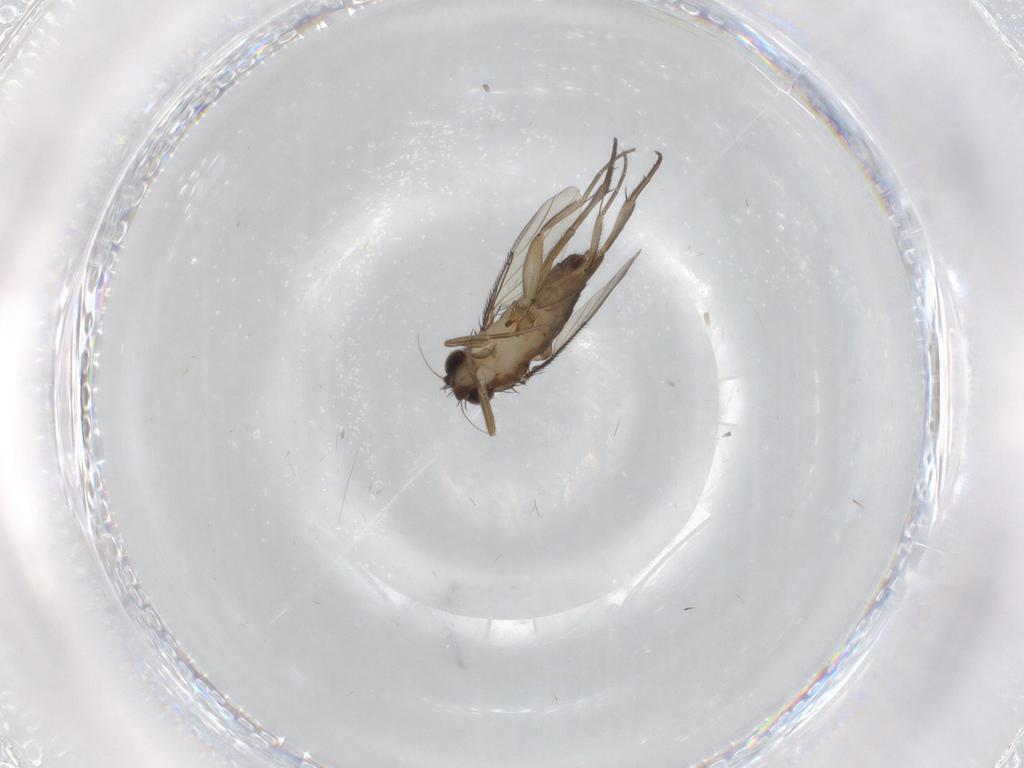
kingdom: Animalia
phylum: Arthropoda
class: Insecta
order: Diptera
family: Phoridae
